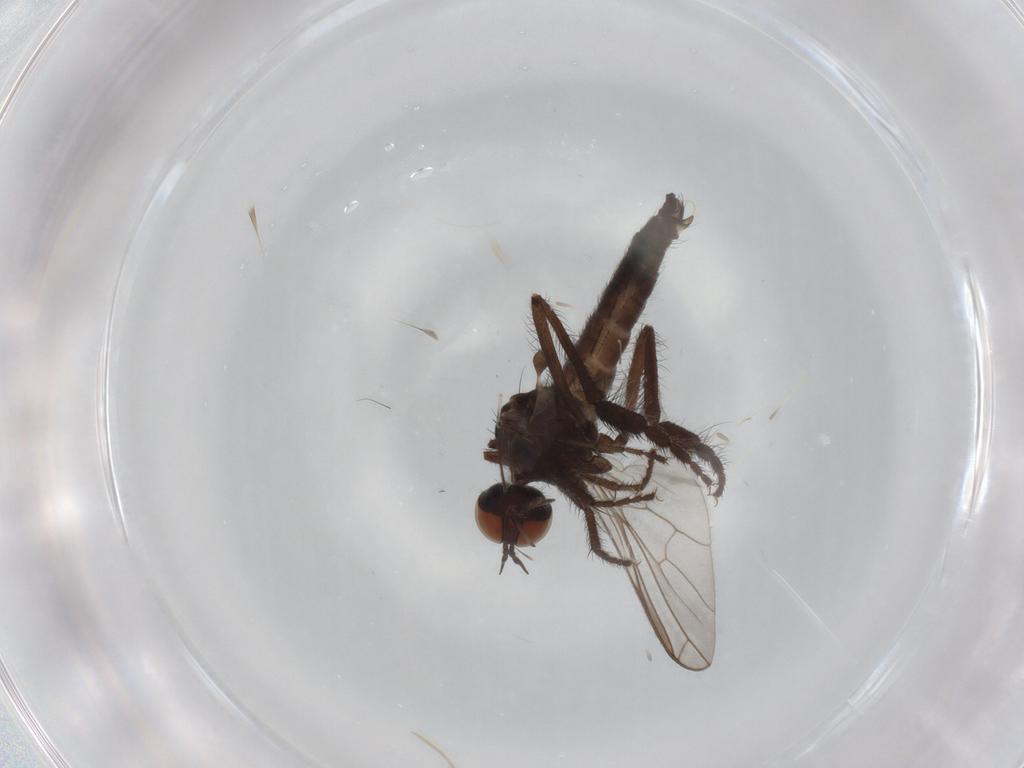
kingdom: Animalia
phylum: Arthropoda
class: Insecta
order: Diptera
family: Empididae
